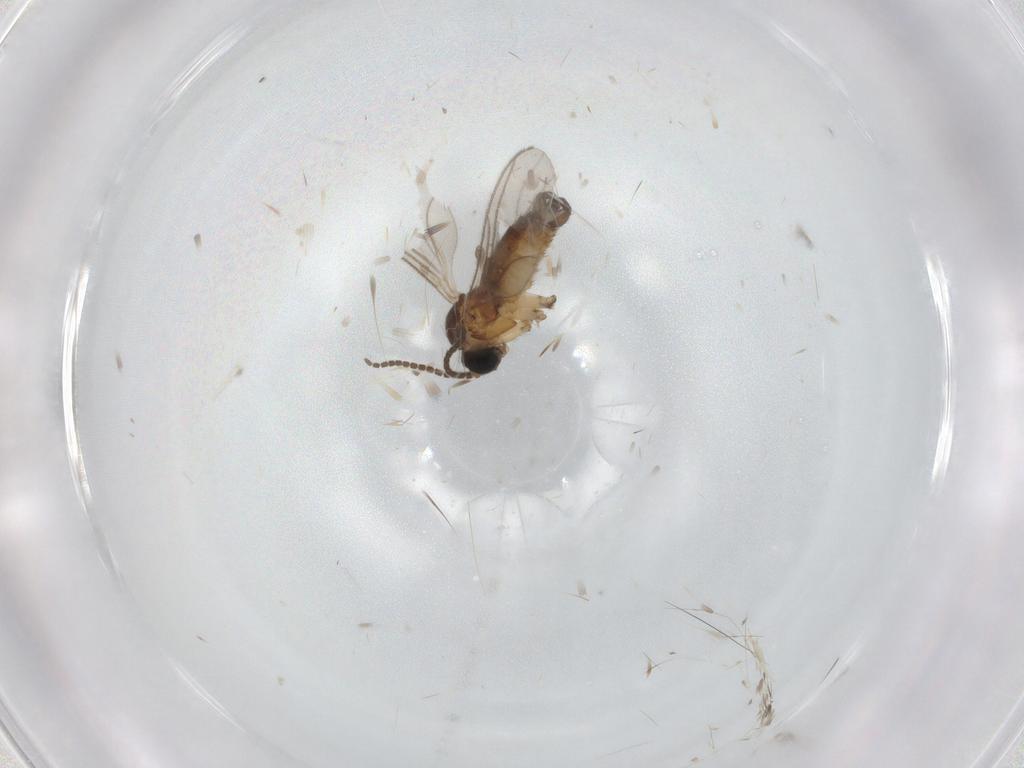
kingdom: Animalia
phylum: Arthropoda
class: Insecta
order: Diptera
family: Sciaridae
